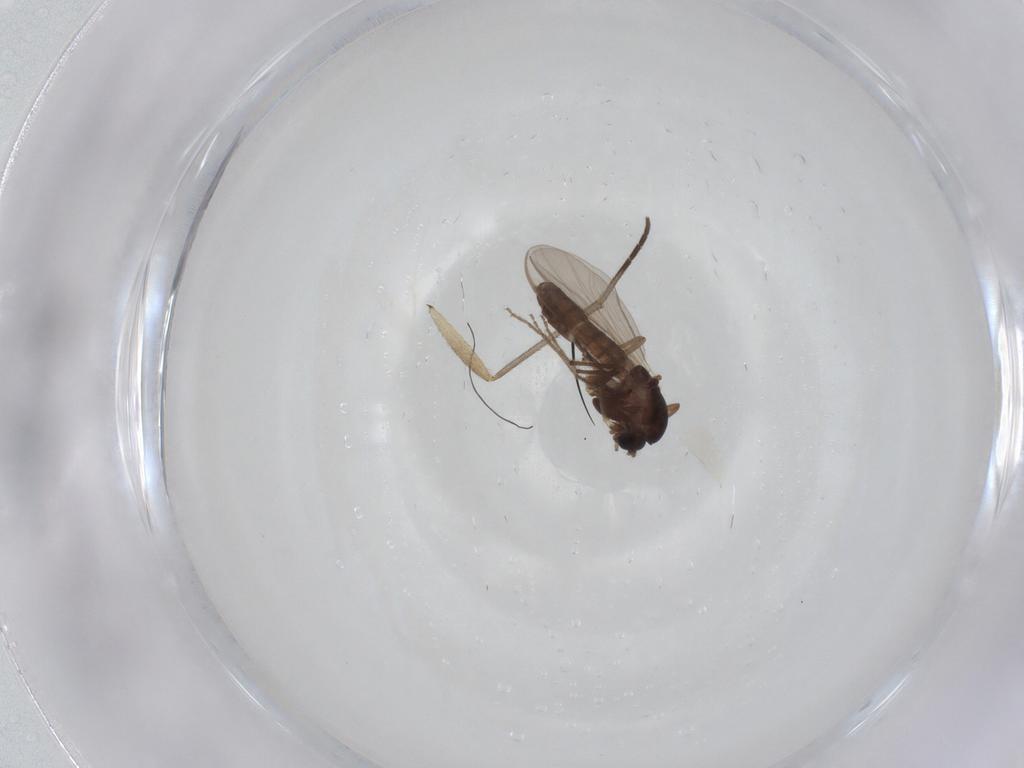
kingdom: Animalia
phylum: Arthropoda
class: Insecta
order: Diptera
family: Chironomidae
